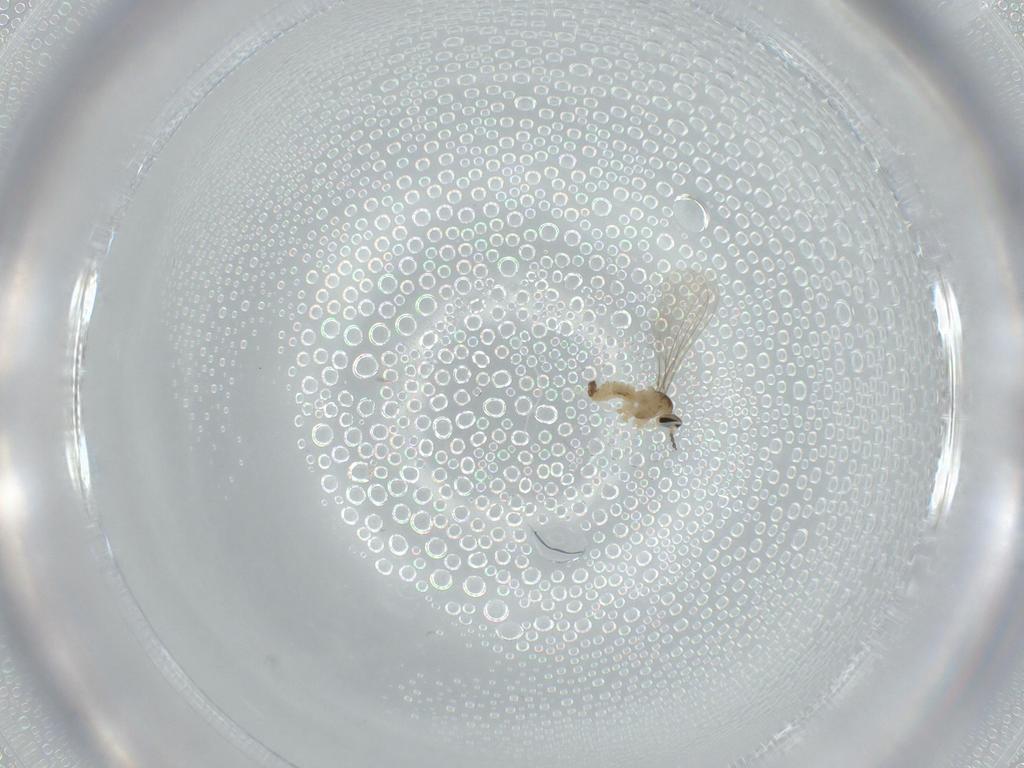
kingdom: Animalia
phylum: Arthropoda
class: Insecta
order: Diptera
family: Cecidomyiidae
